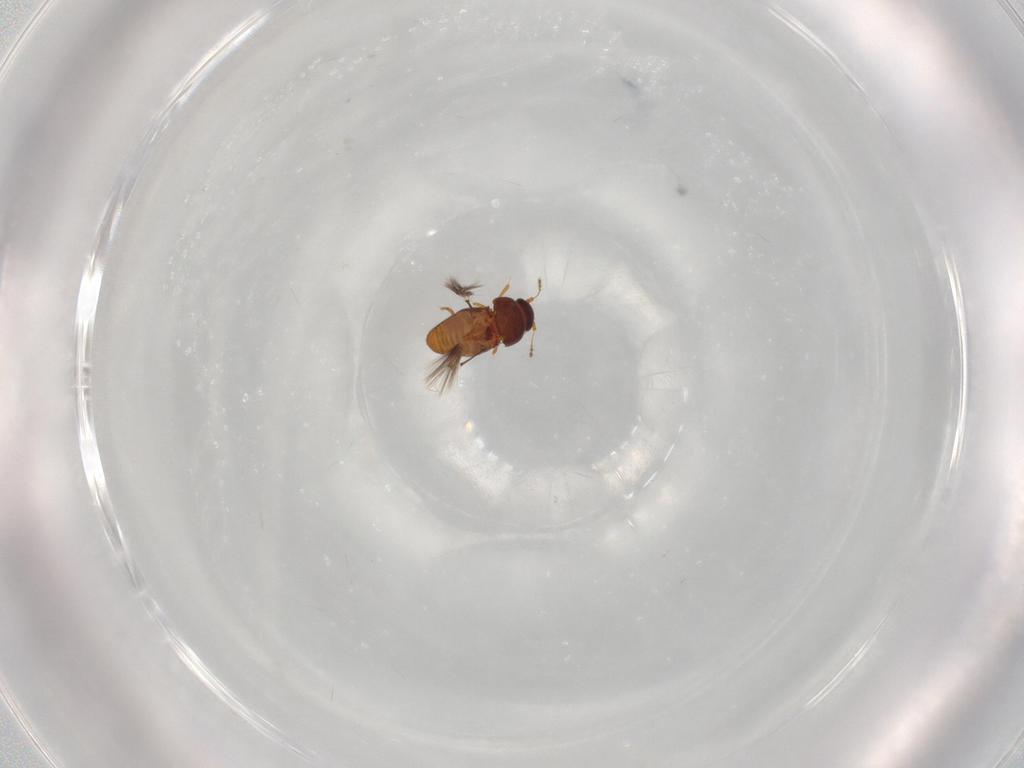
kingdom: Animalia
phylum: Arthropoda
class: Insecta
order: Coleoptera
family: Ptiliidae
